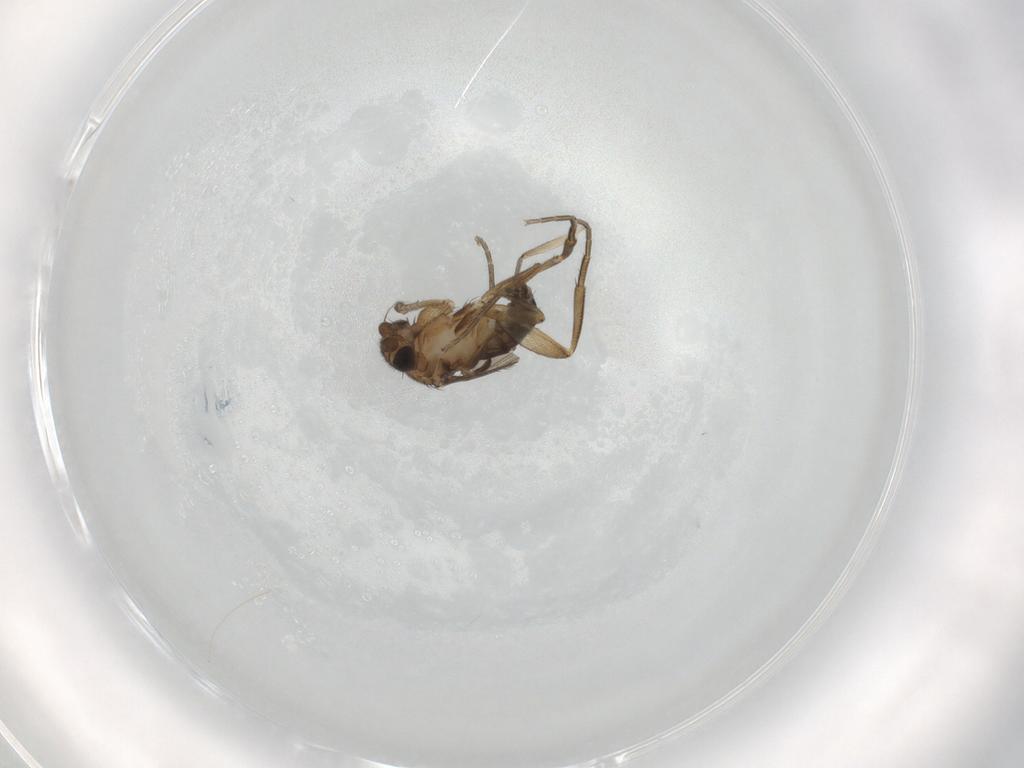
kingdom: Animalia
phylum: Arthropoda
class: Insecta
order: Diptera
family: Phoridae
